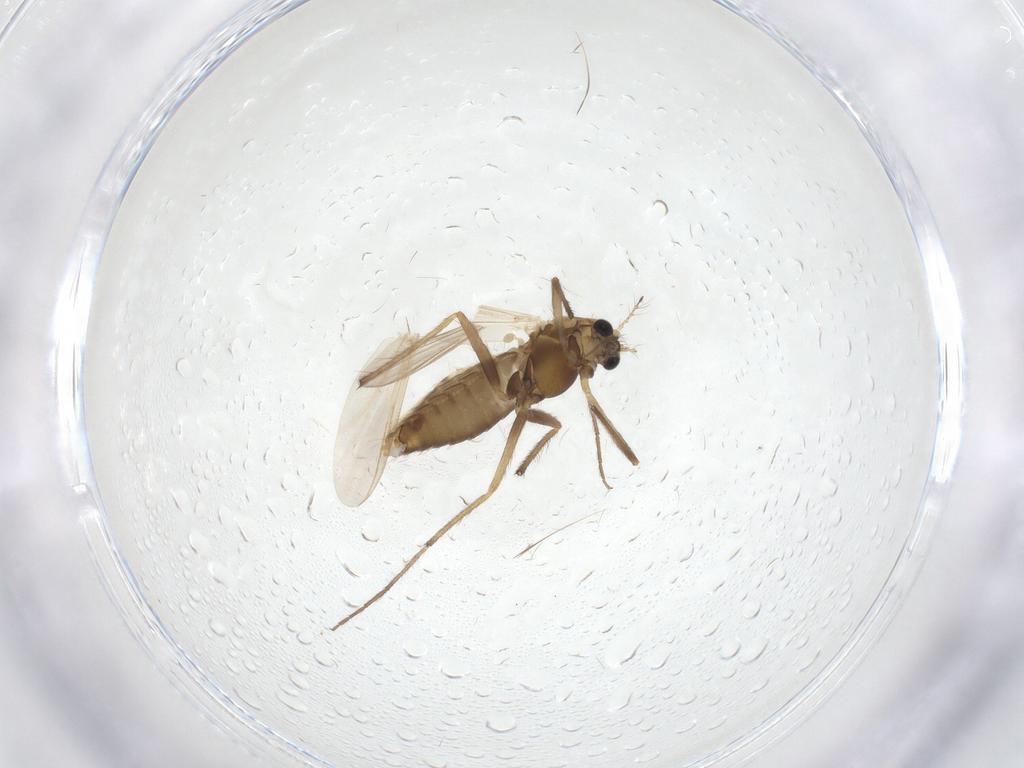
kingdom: Animalia
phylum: Arthropoda
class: Insecta
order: Diptera
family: Chironomidae
